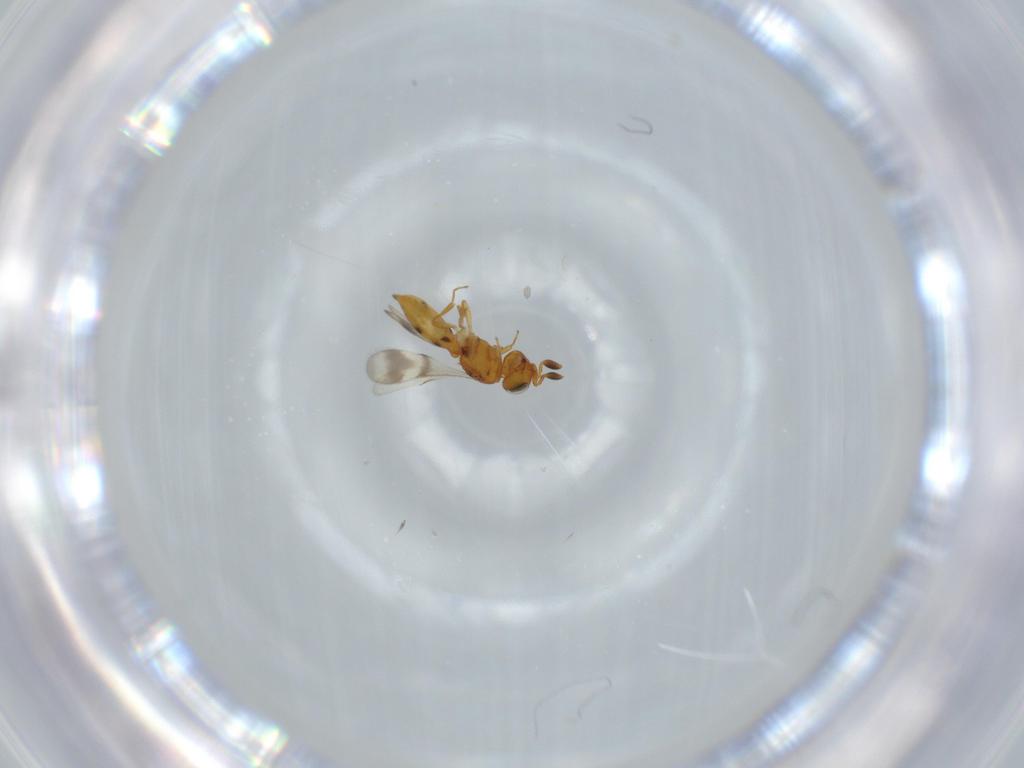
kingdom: Animalia
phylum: Arthropoda
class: Insecta
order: Hymenoptera
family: Scelionidae
